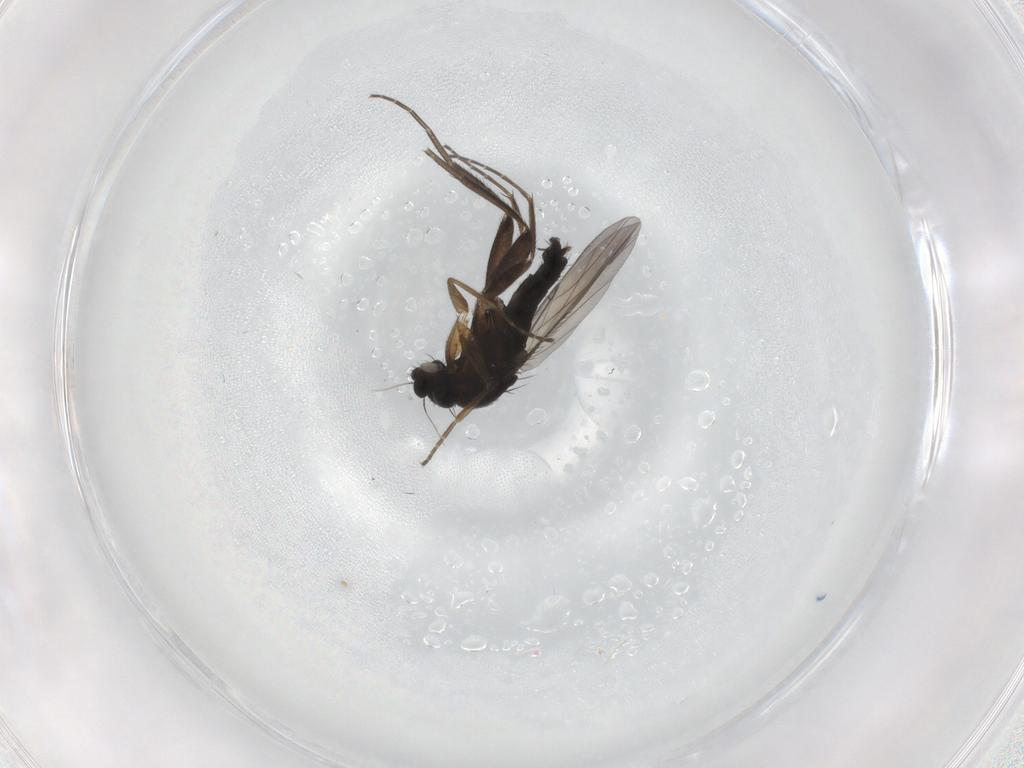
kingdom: Animalia
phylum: Arthropoda
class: Insecta
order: Diptera
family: Phoridae
